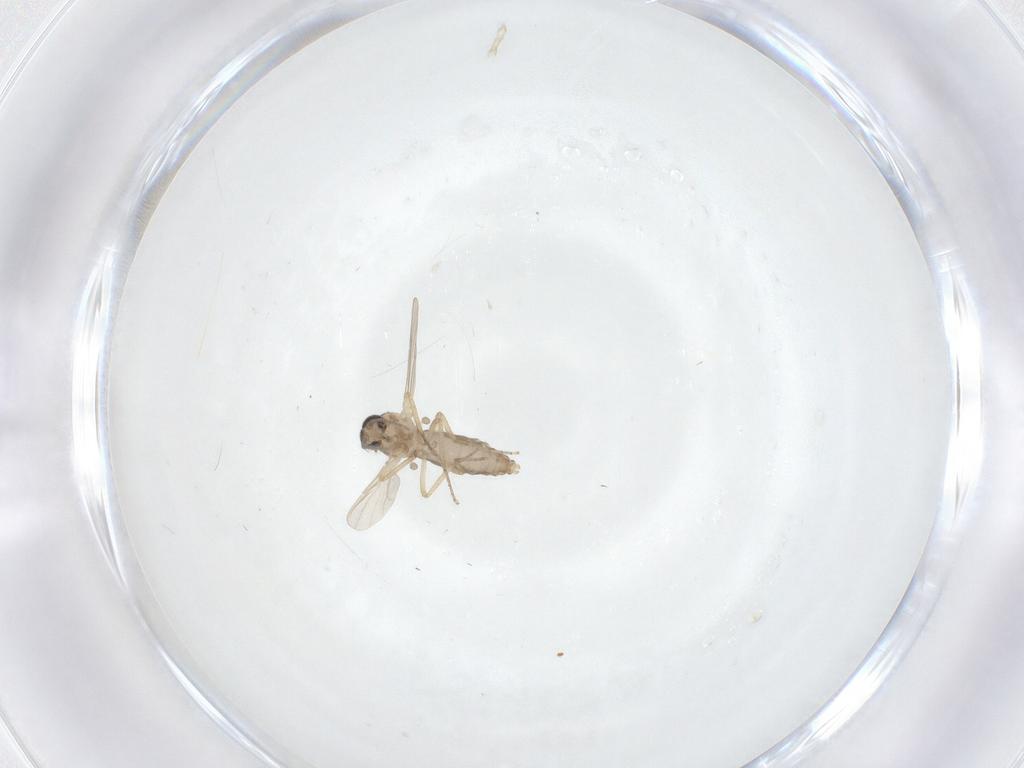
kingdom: Animalia
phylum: Arthropoda
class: Insecta
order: Diptera
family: Ceratopogonidae
